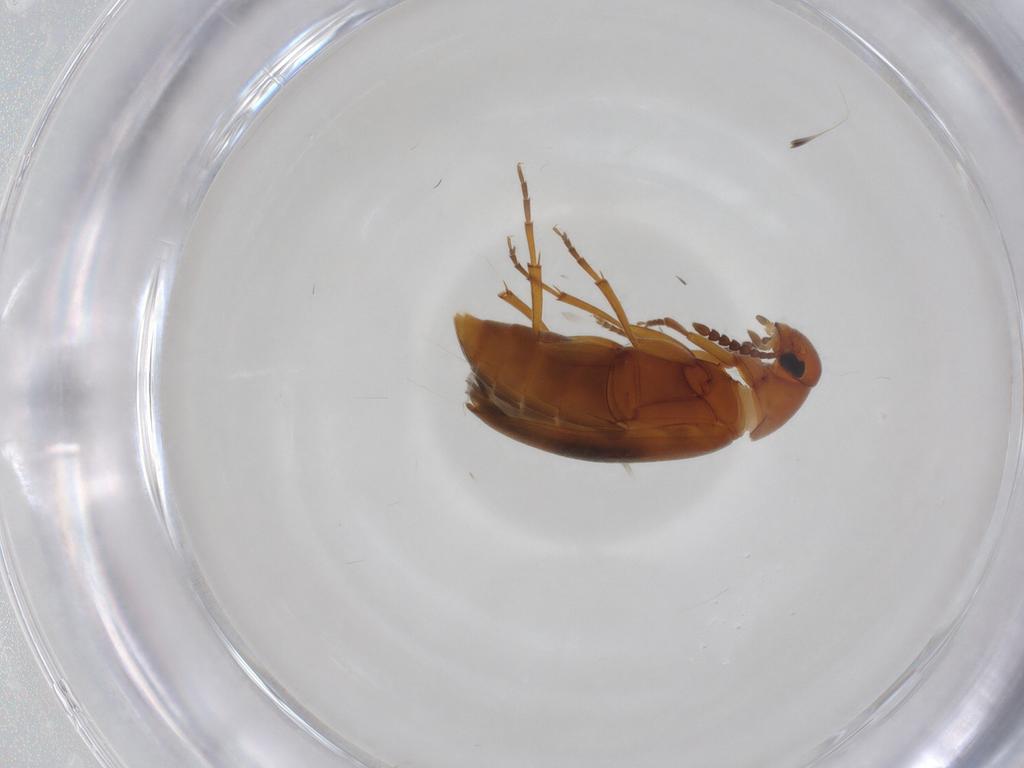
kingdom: Animalia
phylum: Arthropoda
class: Insecta
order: Coleoptera
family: Scraptiidae
